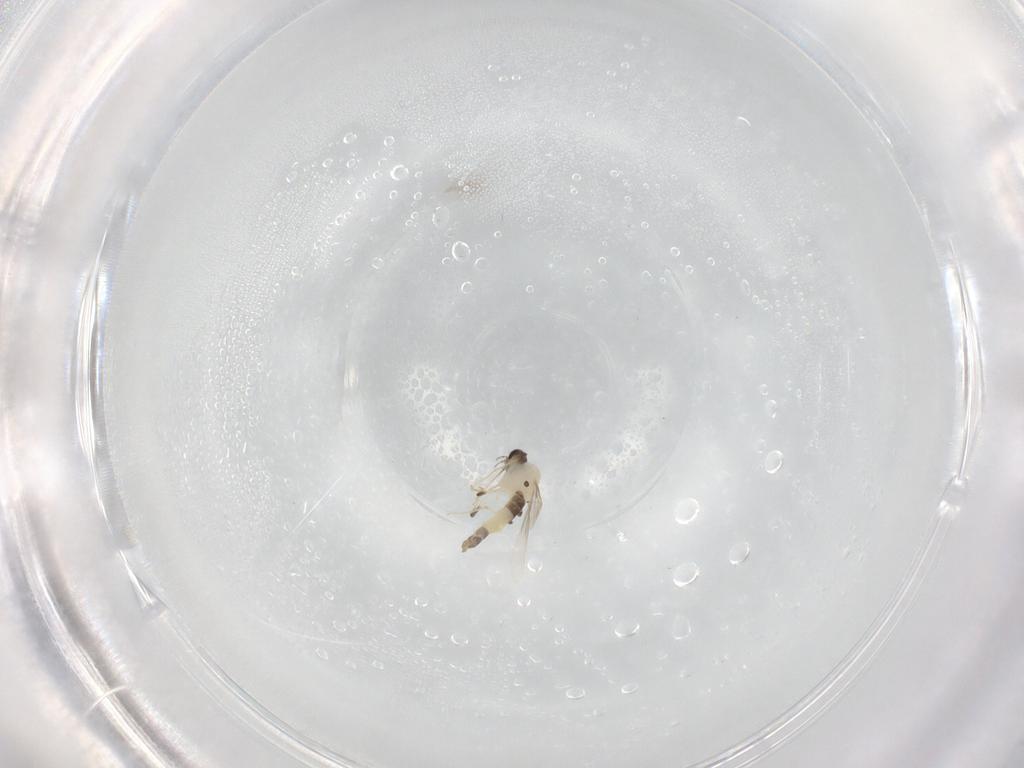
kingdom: Animalia
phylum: Arthropoda
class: Insecta
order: Diptera
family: Chironomidae
